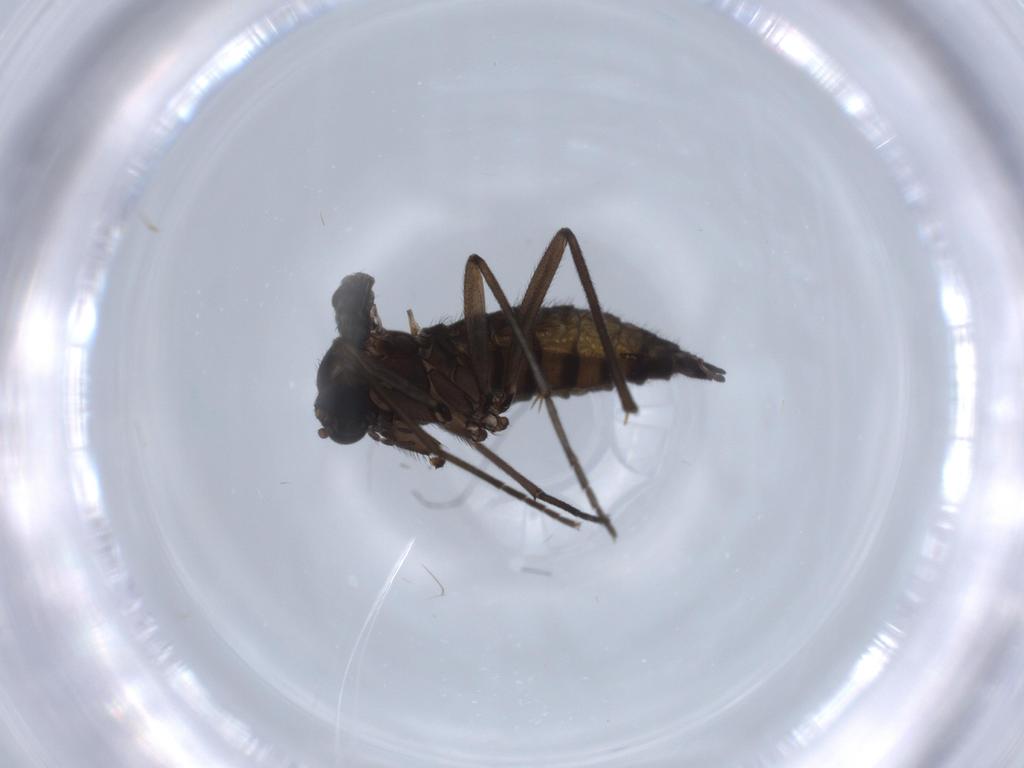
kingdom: Animalia
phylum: Arthropoda
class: Insecta
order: Diptera
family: Sciaridae
